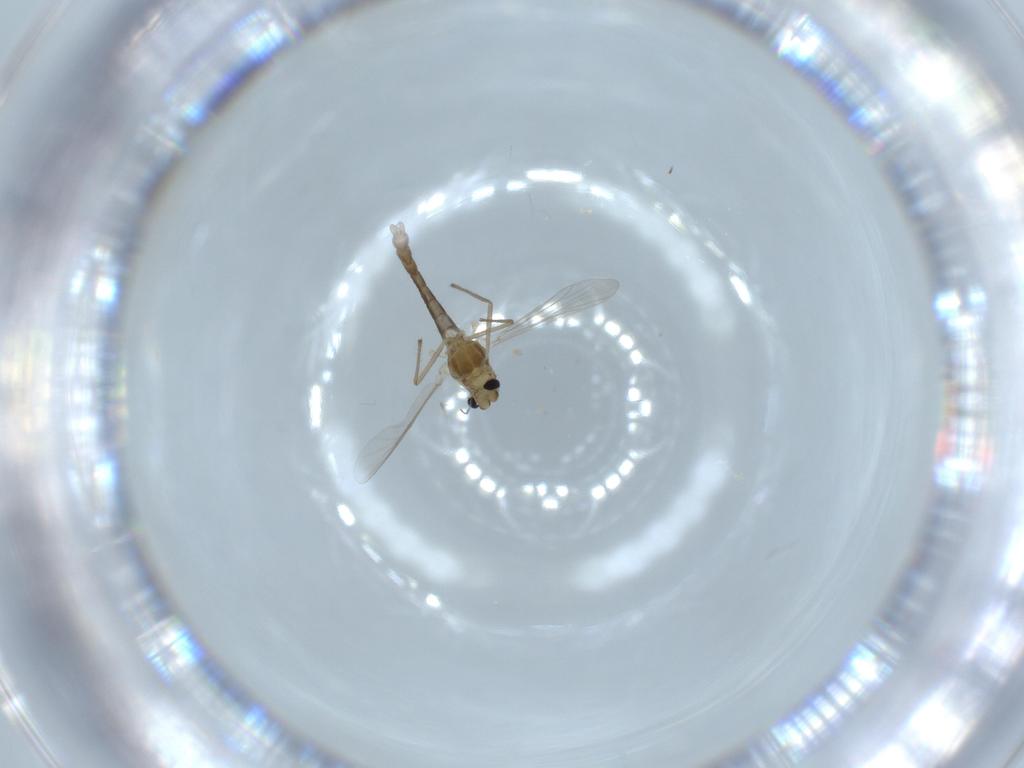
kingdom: Animalia
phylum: Arthropoda
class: Insecta
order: Diptera
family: Chironomidae
